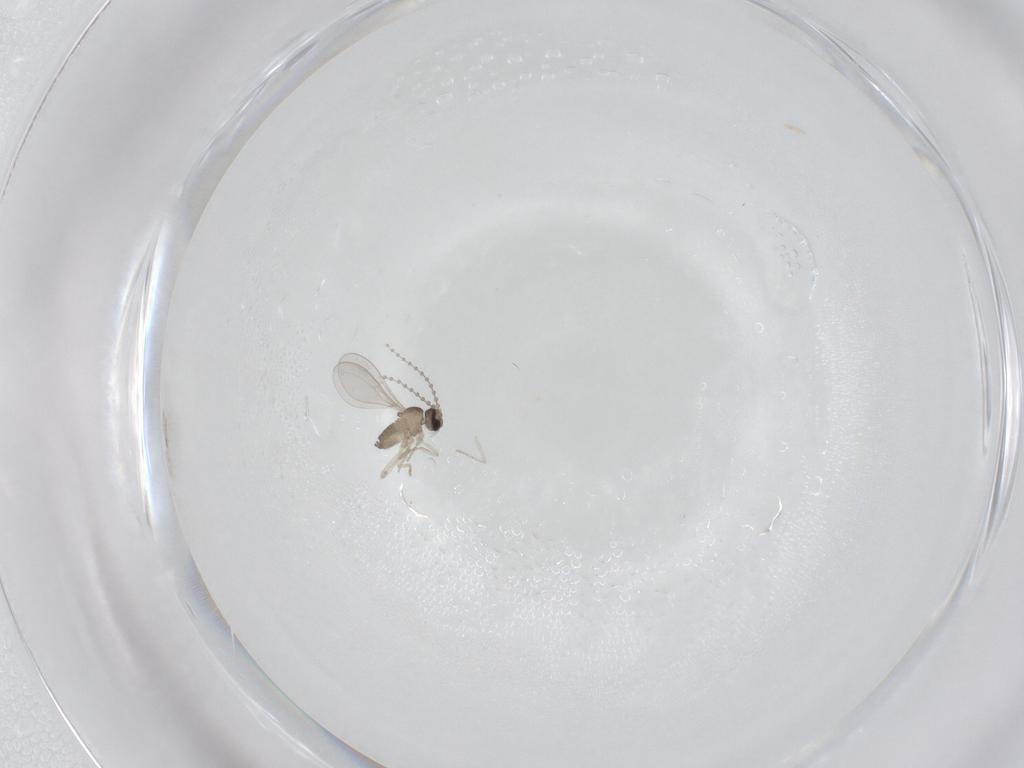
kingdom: Animalia
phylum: Arthropoda
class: Insecta
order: Diptera
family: Cecidomyiidae
